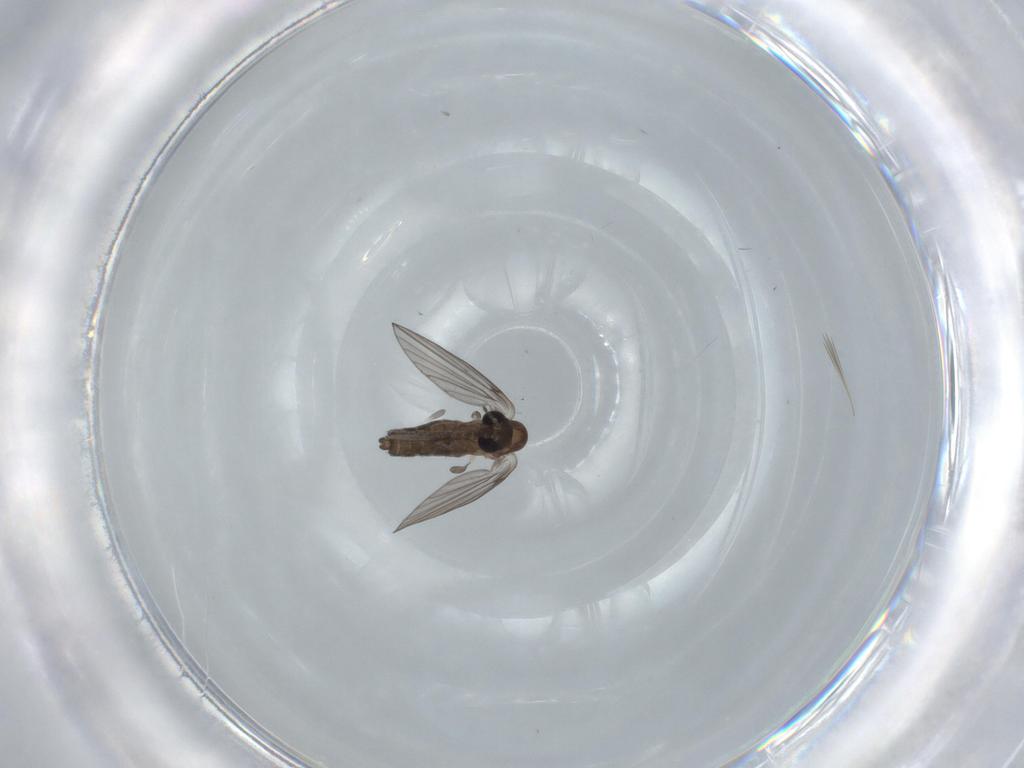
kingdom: Animalia
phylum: Arthropoda
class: Insecta
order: Diptera
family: Psychodidae
